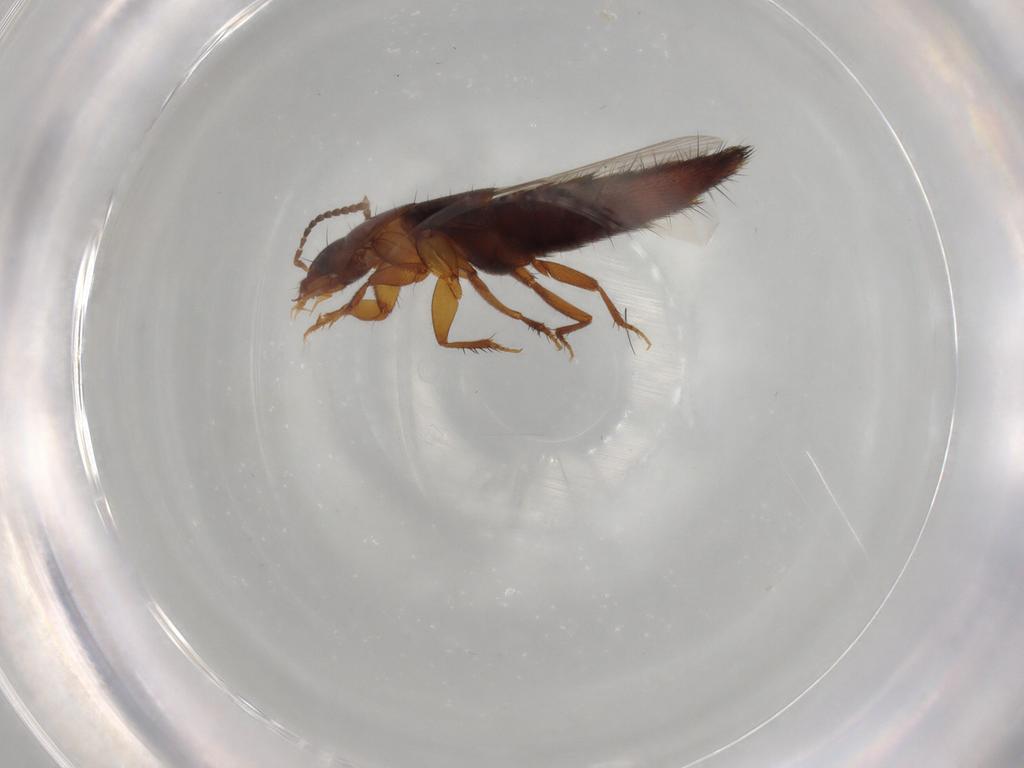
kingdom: Animalia
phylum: Arthropoda
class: Insecta
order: Coleoptera
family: Staphylinidae
